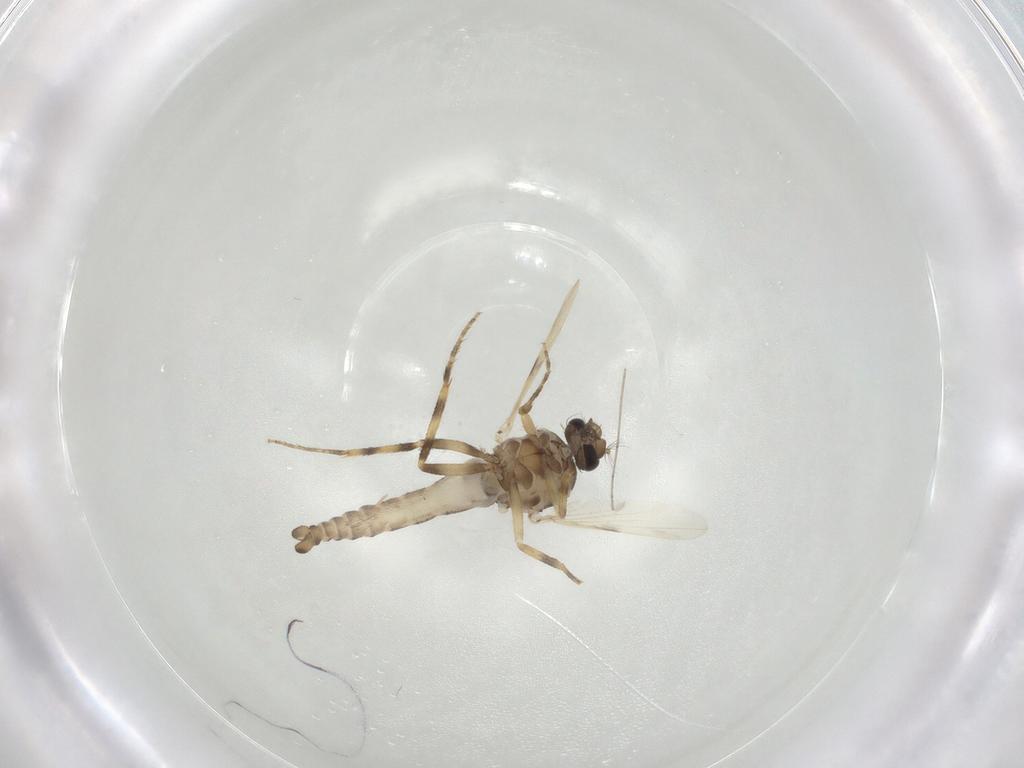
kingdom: Animalia
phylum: Arthropoda
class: Insecta
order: Diptera
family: Ceratopogonidae
